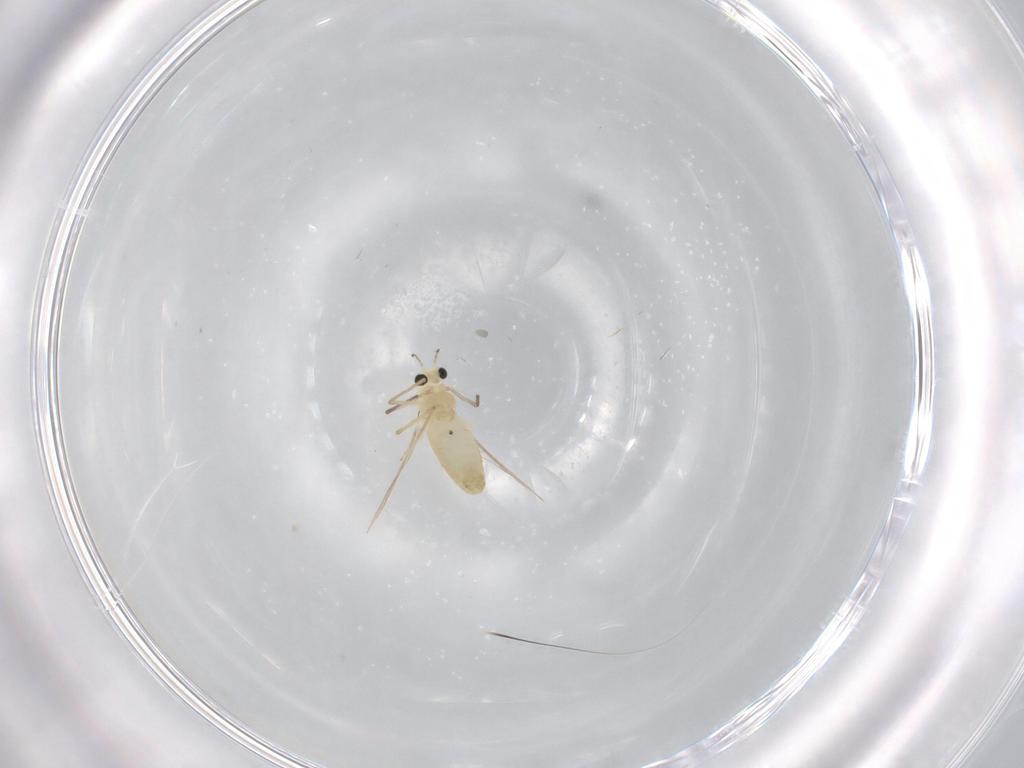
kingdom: Animalia
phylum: Arthropoda
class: Insecta
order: Diptera
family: Chironomidae
